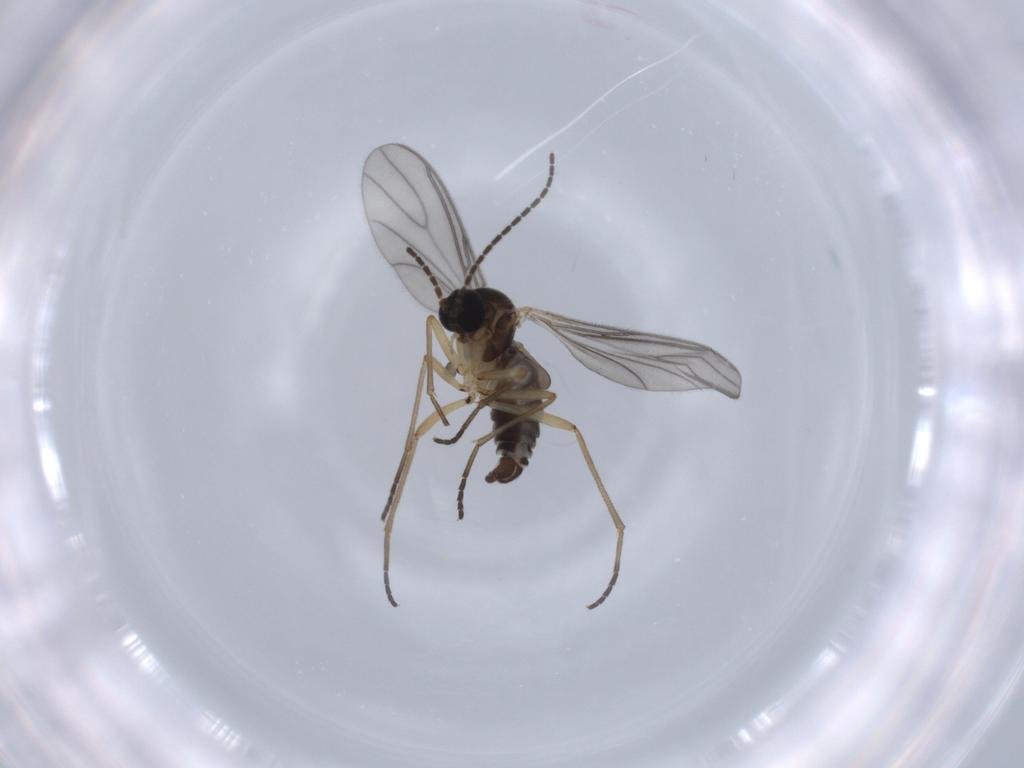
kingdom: Animalia
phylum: Arthropoda
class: Insecta
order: Diptera
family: Sciaridae
